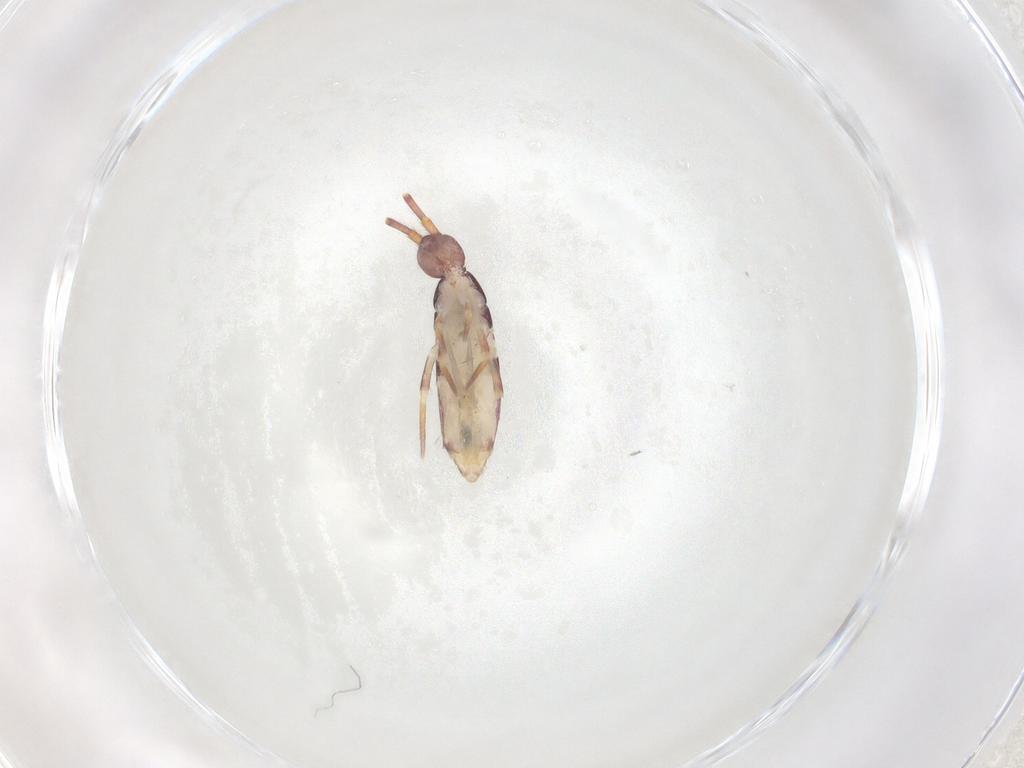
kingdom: Animalia
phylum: Arthropoda
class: Collembola
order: Entomobryomorpha
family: Entomobryidae
